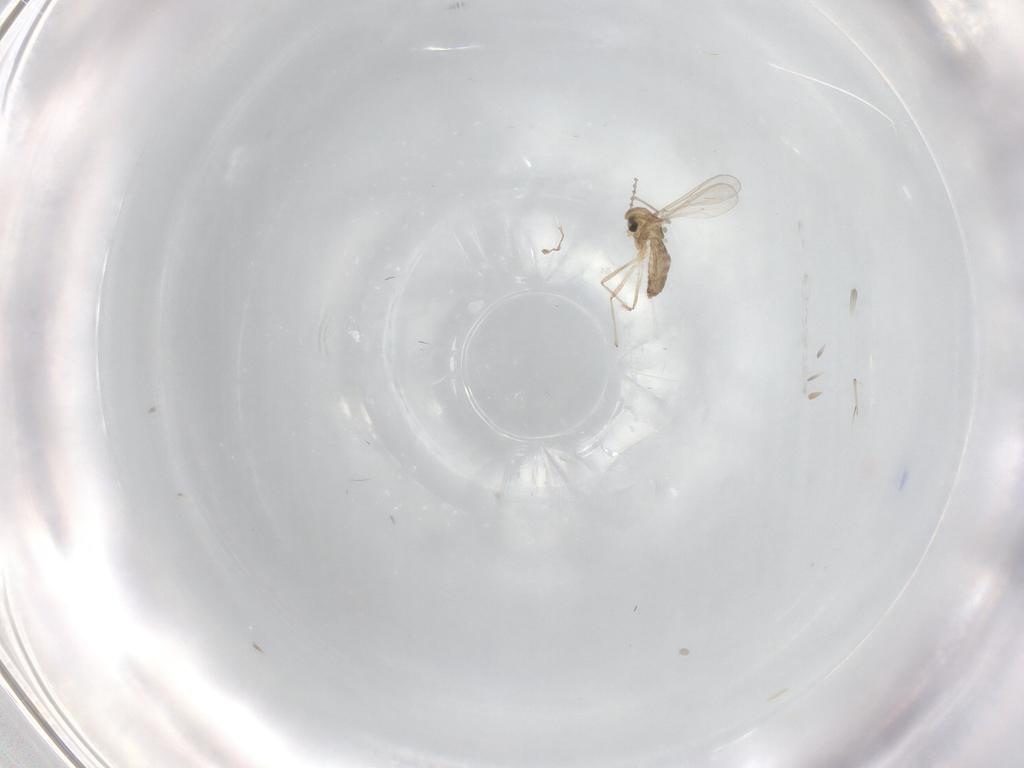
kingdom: Animalia
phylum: Arthropoda
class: Insecta
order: Diptera
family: Chironomidae
